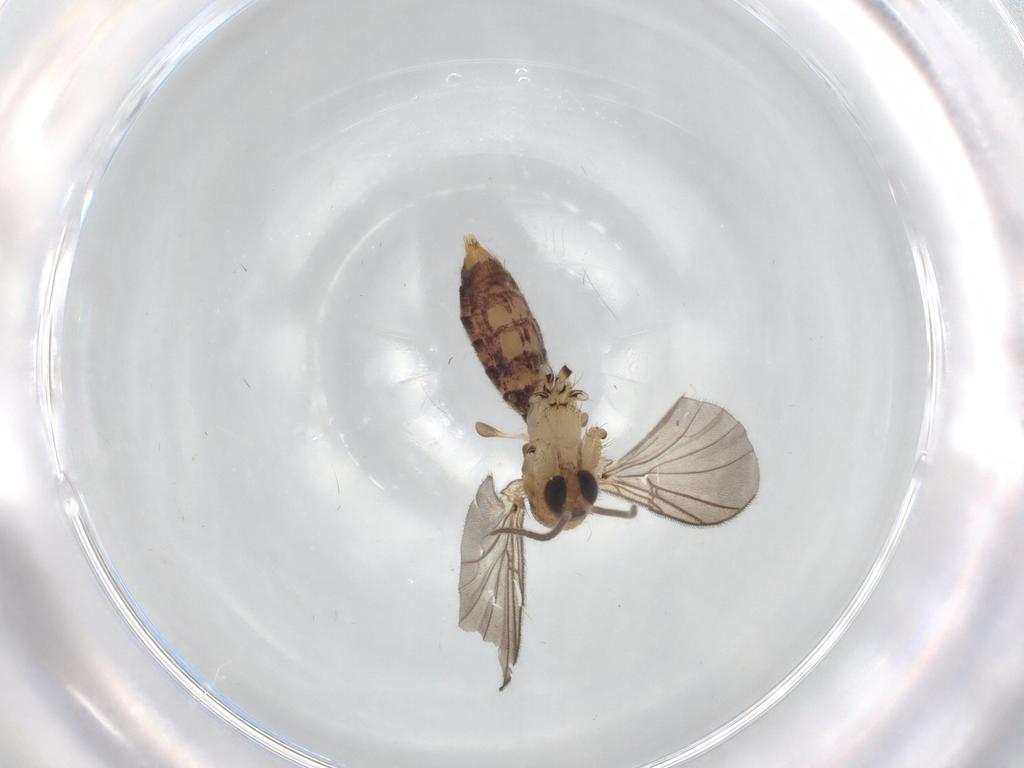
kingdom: Animalia
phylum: Arthropoda
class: Insecta
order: Diptera
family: Mycetophilidae
